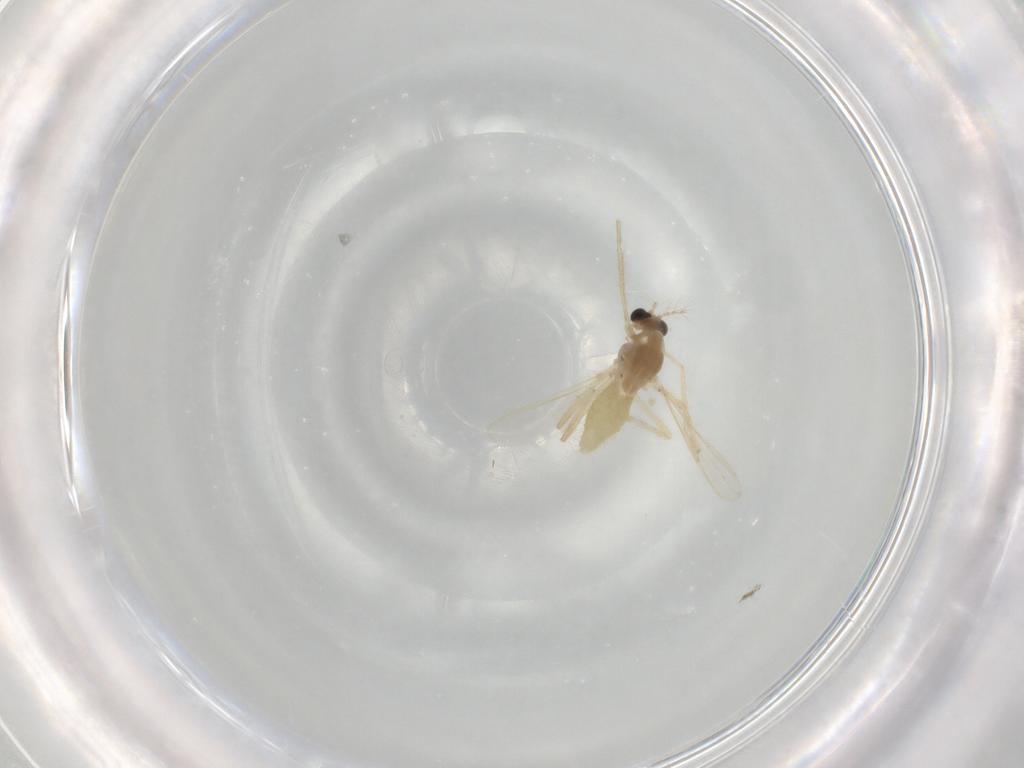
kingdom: Animalia
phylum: Arthropoda
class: Insecta
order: Diptera
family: Chironomidae
